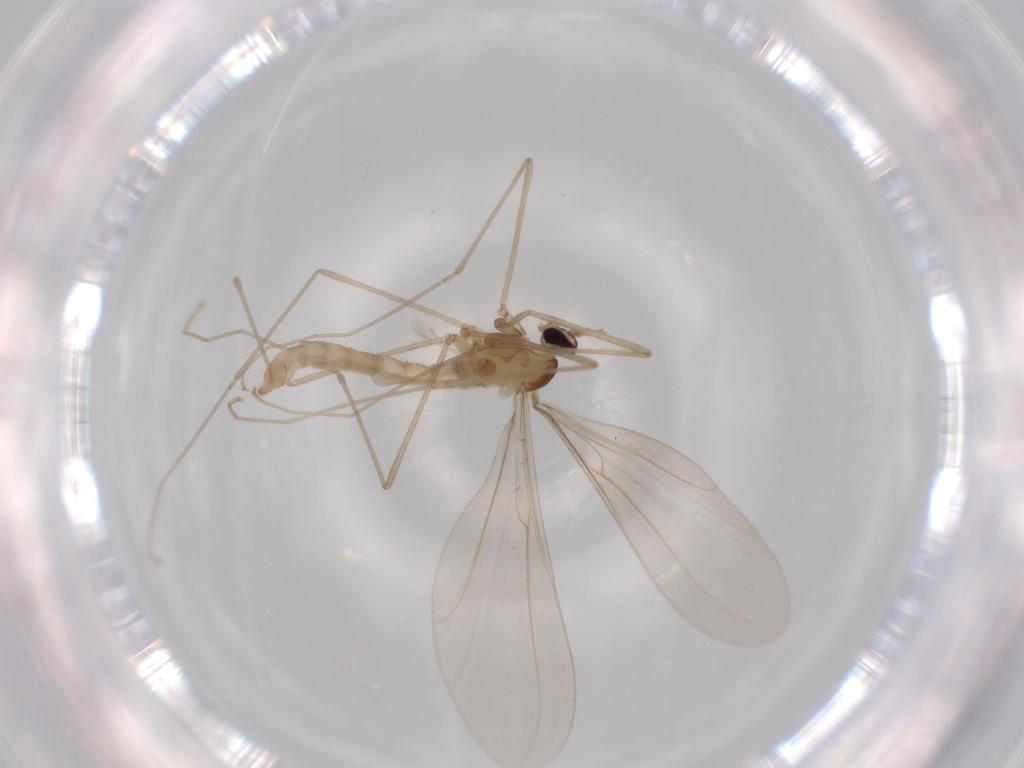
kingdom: Animalia
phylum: Arthropoda
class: Insecta
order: Diptera
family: Cecidomyiidae
